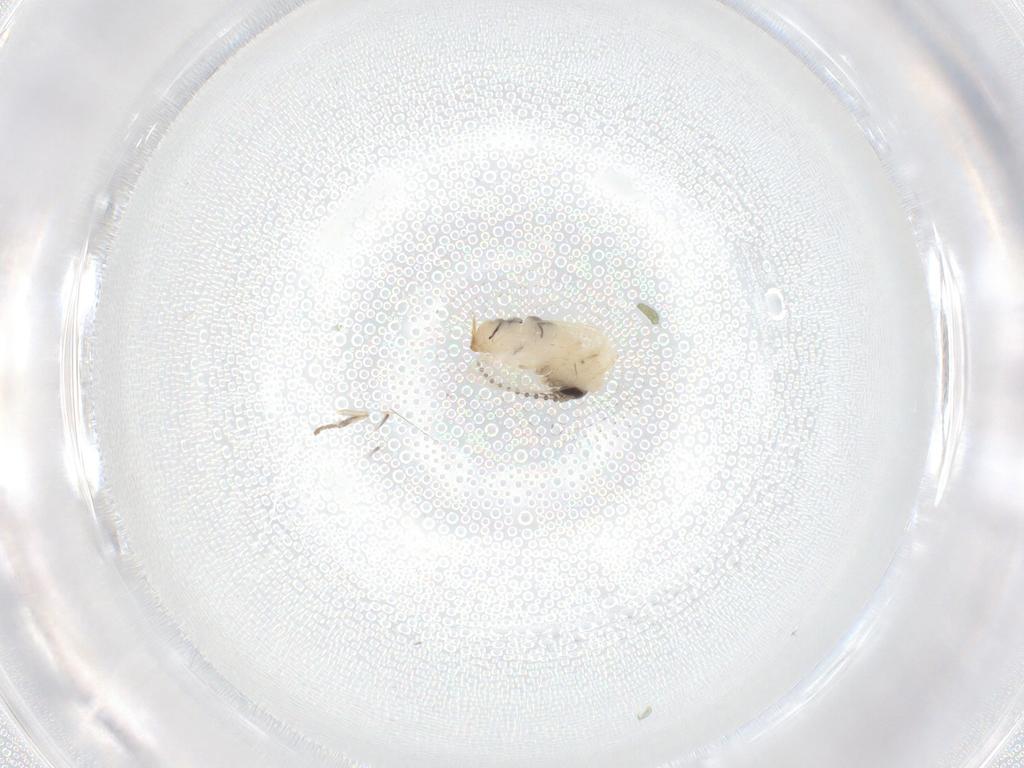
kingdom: Animalia
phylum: Arthropoda
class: Insecta
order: Diptera
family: Psychodidae
